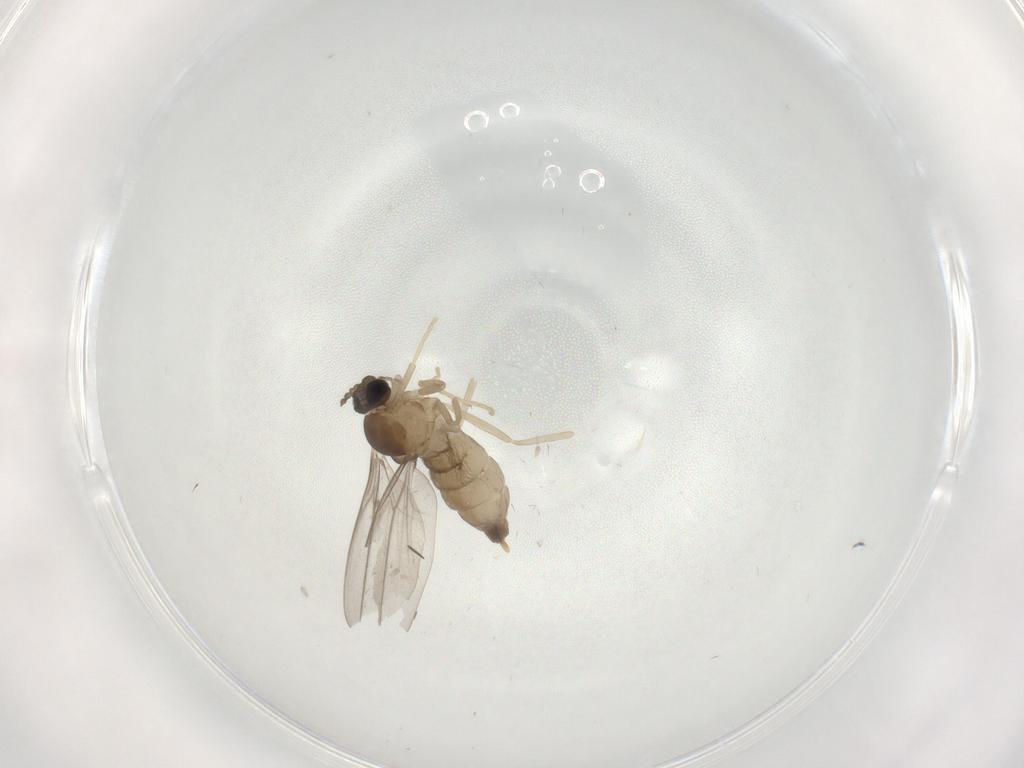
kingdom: Animalia
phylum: Arthropoda
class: Insecta
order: Diptera
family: Cecidomyiidae
